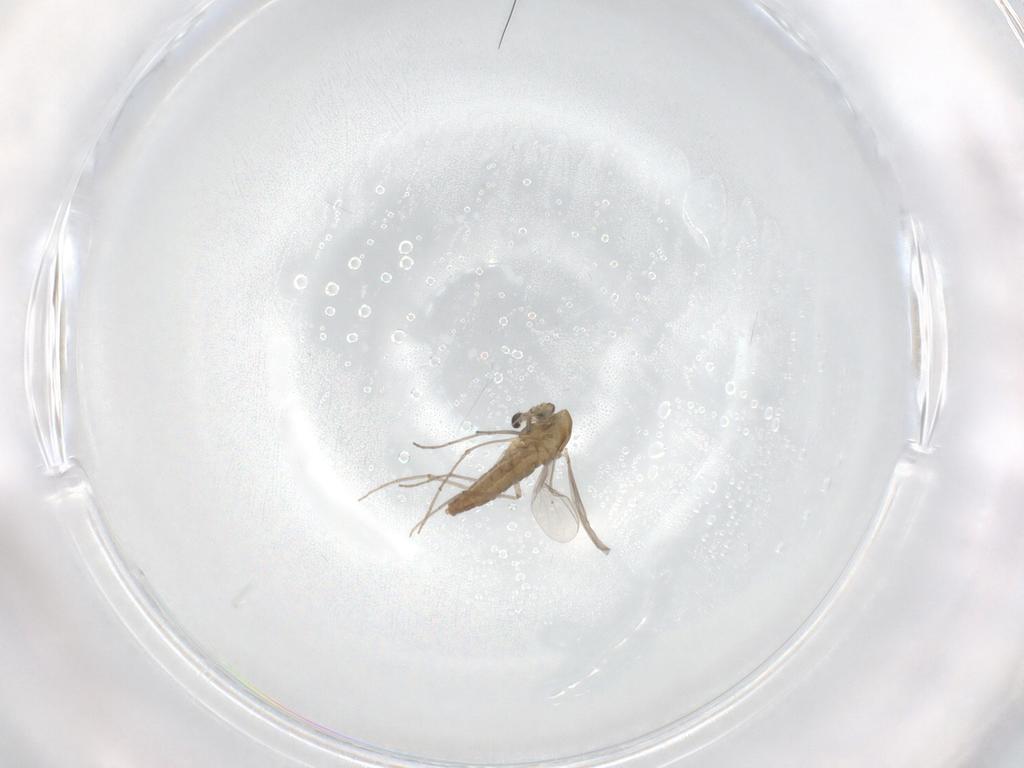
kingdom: Animalia
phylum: Arthropoda
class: Insecta
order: Diptera
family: Chironomidae
